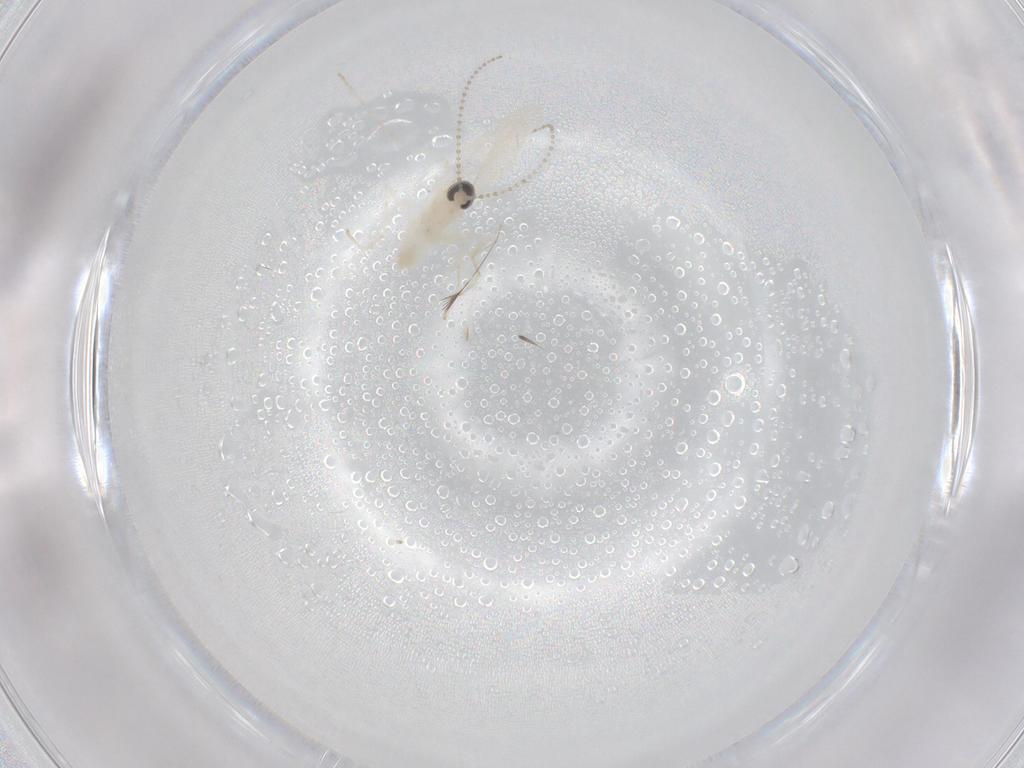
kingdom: Animalia
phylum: Arthropoda
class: Insecta
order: Diptera
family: Cecidomyiidae
